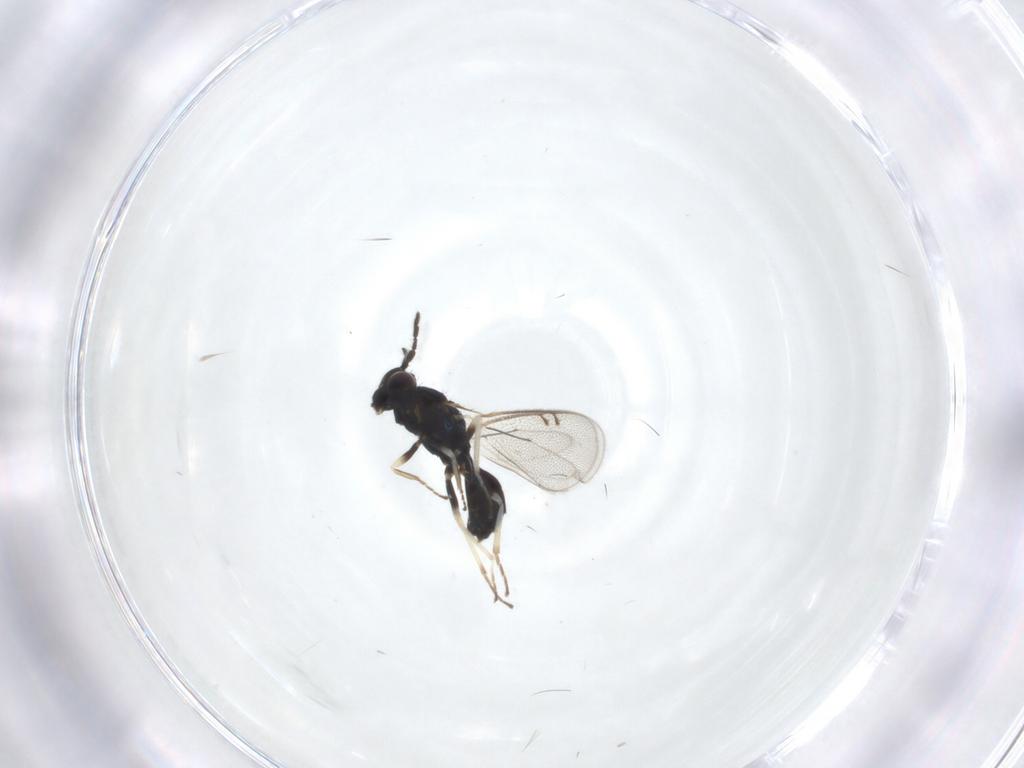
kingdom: Animalia
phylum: Arthropoda
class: Insecta
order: Hymenoptera
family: Eulophidae
